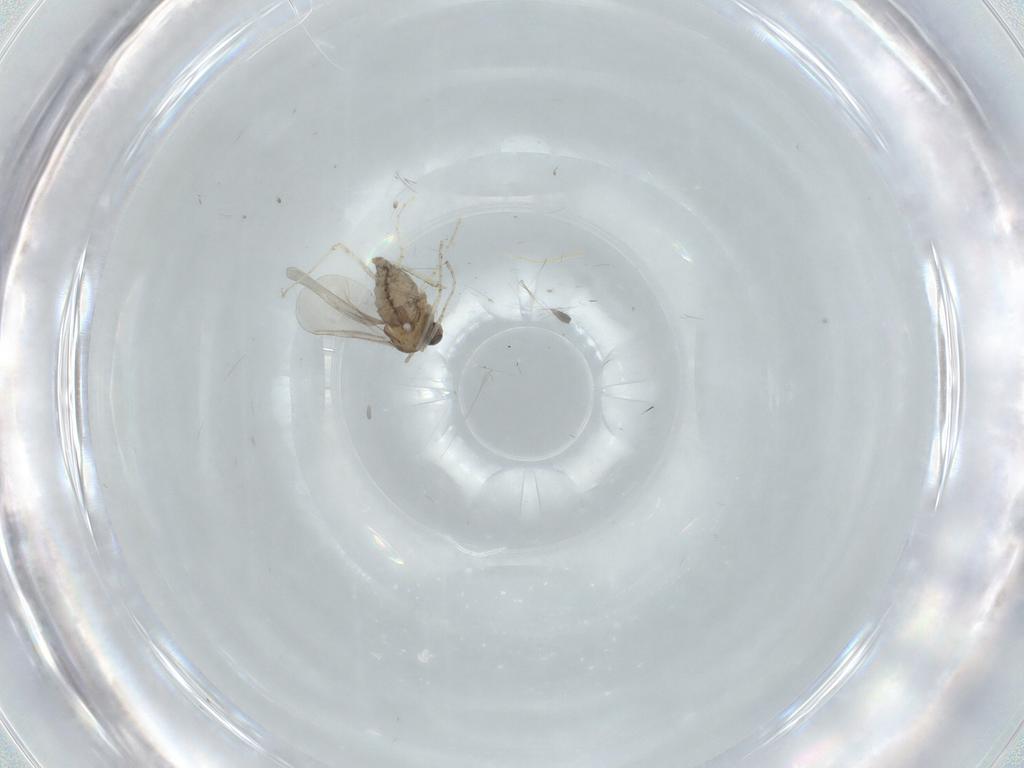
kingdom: Animalia
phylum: Arthropoda
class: Insecta
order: Diptera
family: Cecidomyiidae
